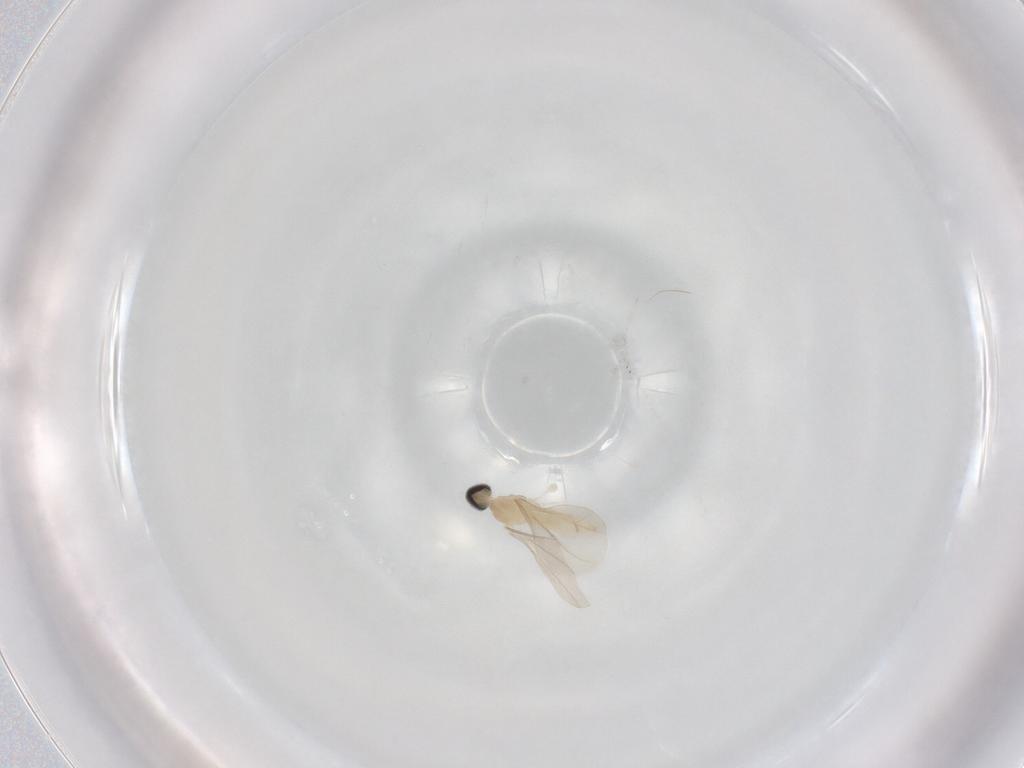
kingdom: Animalia
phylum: Arthropoda
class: Insecta
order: Diptera
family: Cecidomyiidae
